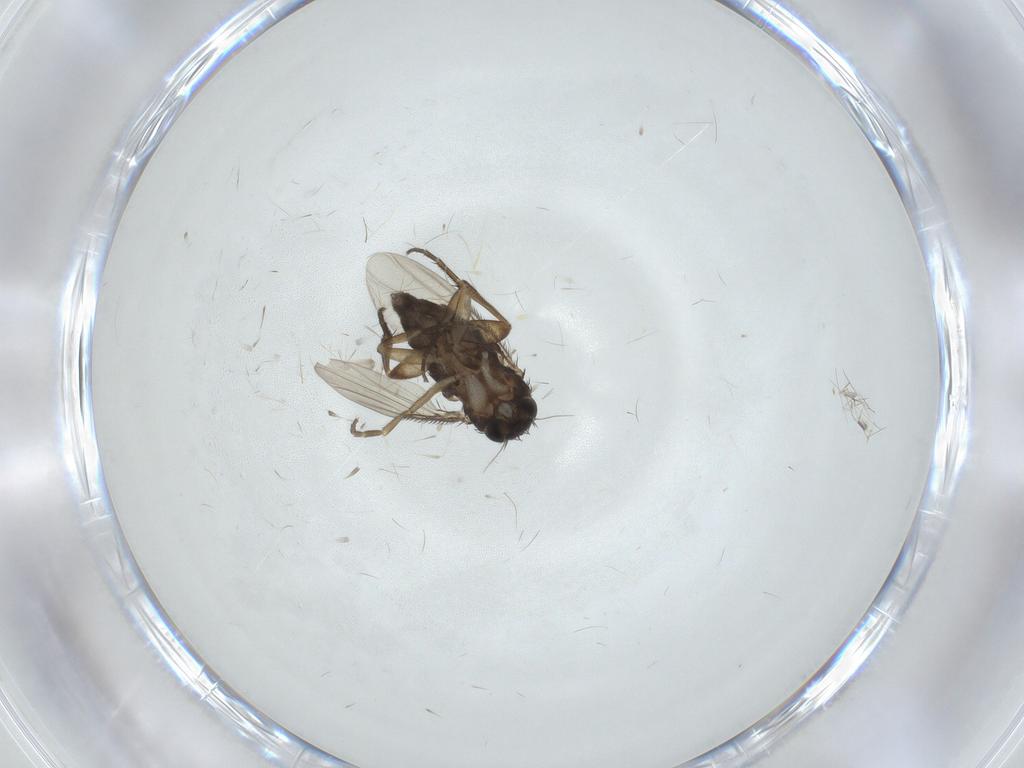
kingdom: Animalia
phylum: Arthropoda
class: Insecta
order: Diptera
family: Phoridae
